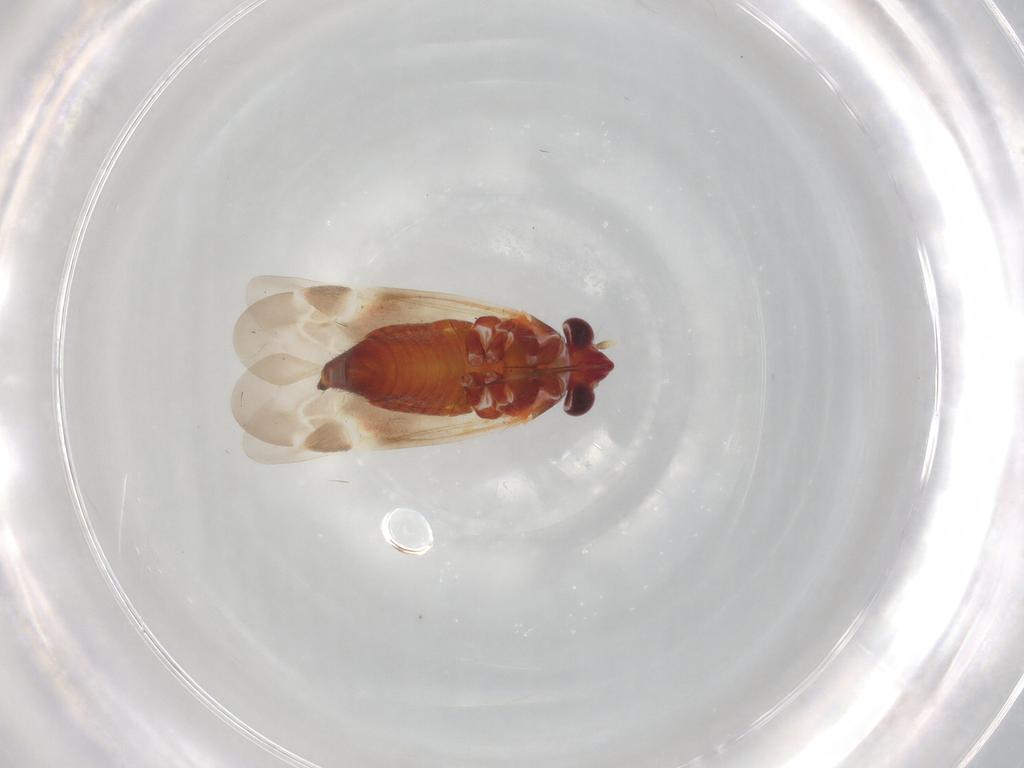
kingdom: Animalia
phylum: Arthropoda
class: Insecta
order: Hemiptera
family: Miridae
